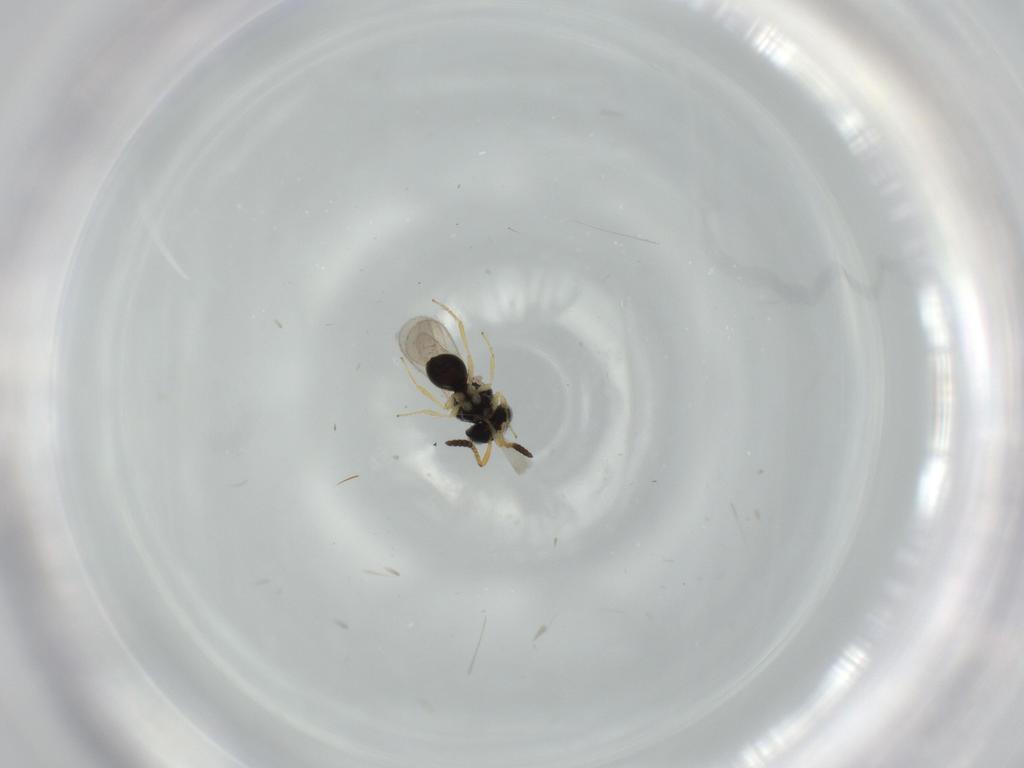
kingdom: Animalia
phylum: Arthropoda
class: Insecta
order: Hymenoptera
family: Scelionidae
